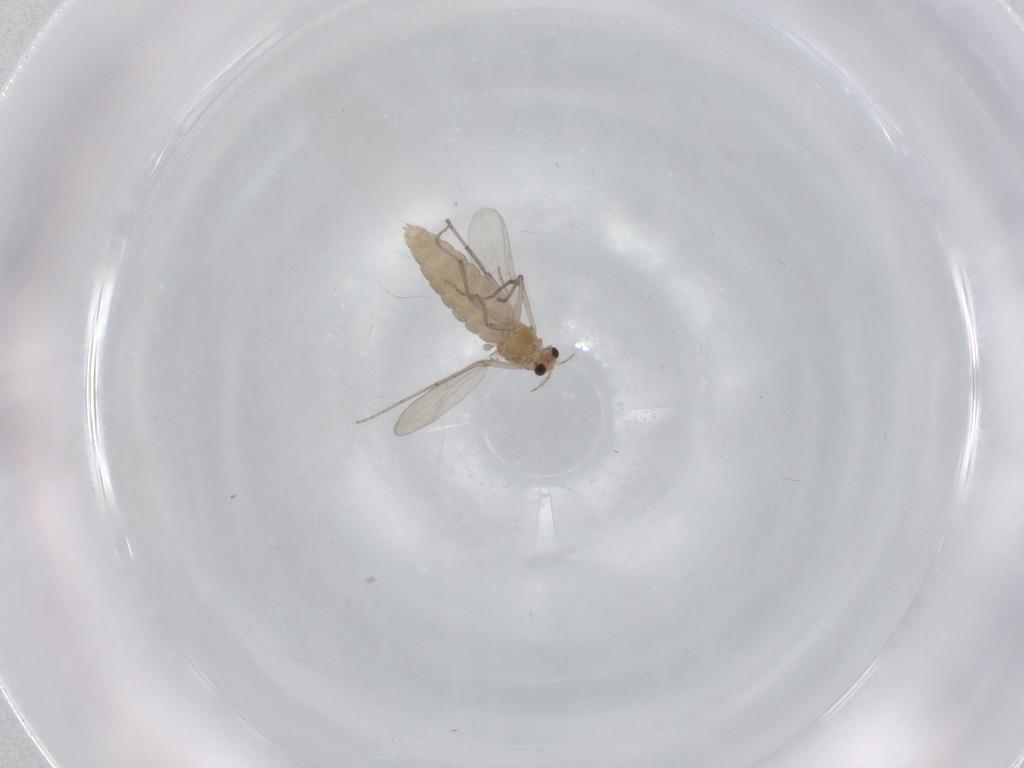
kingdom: Animalia
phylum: Arthropoda
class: Insecta
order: Diptera
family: Chironomidae
